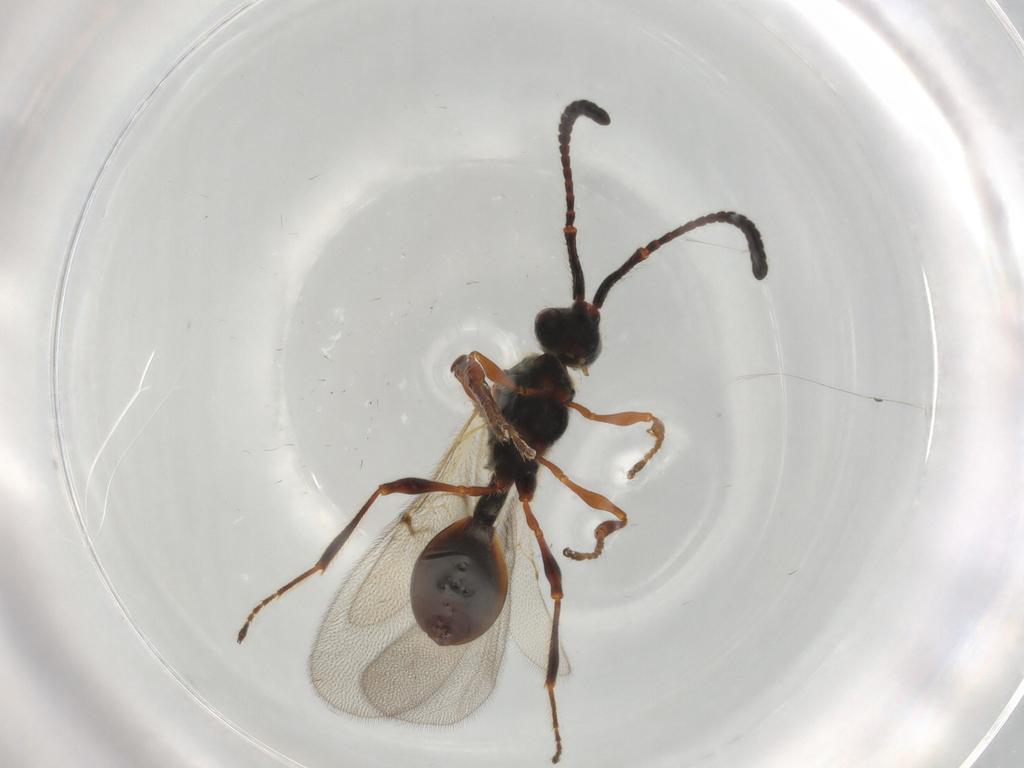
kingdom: Animalia
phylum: Arthropoda
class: Insecta
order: Hymenoptera
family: Diapriidae
